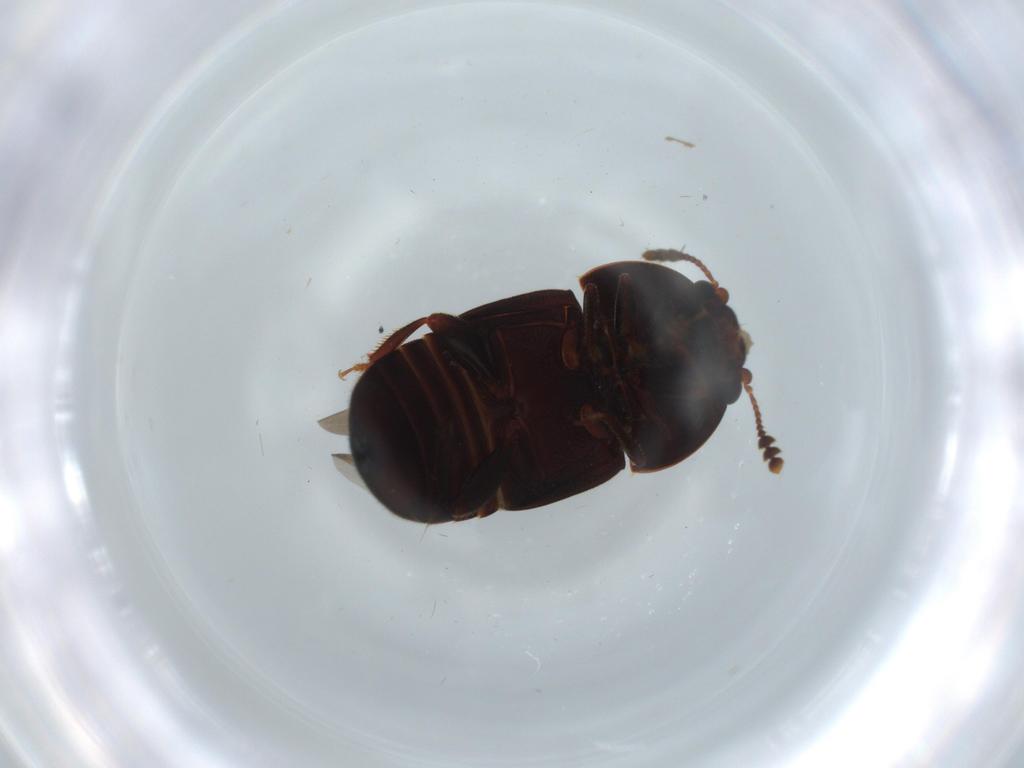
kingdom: Animalia
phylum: Arthropoda
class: Insecta
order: Coleoptera
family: Nitidulidae
